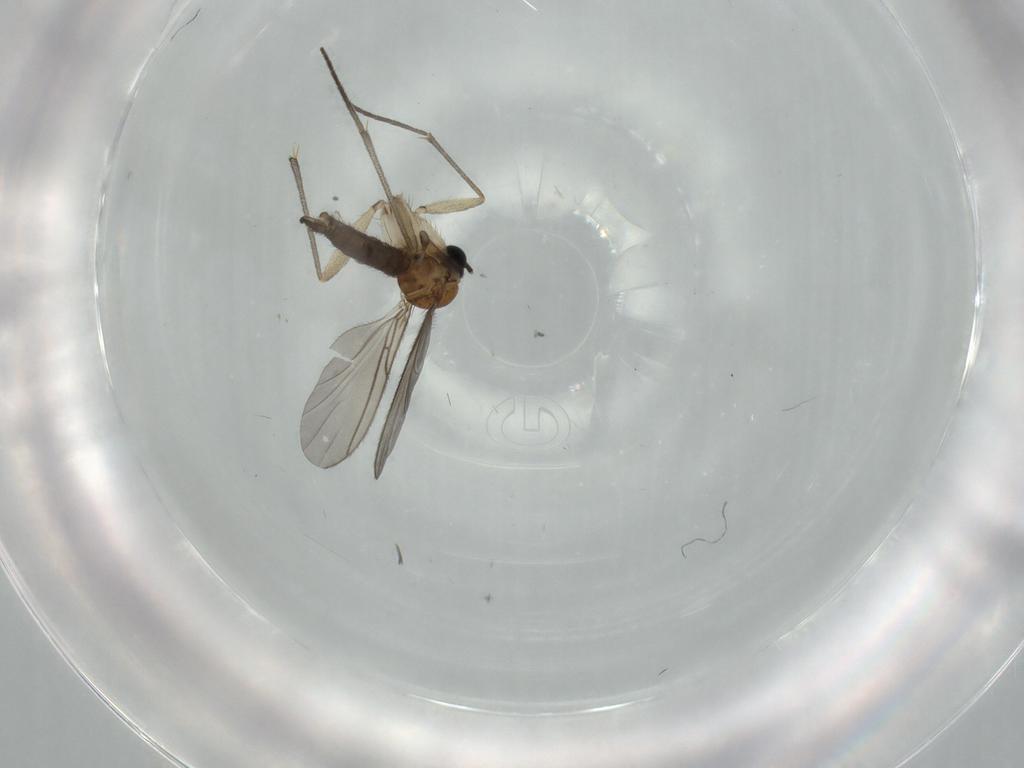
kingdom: Animalia
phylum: Arthropoda
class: Insecta
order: Diptera
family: Sciaridae
